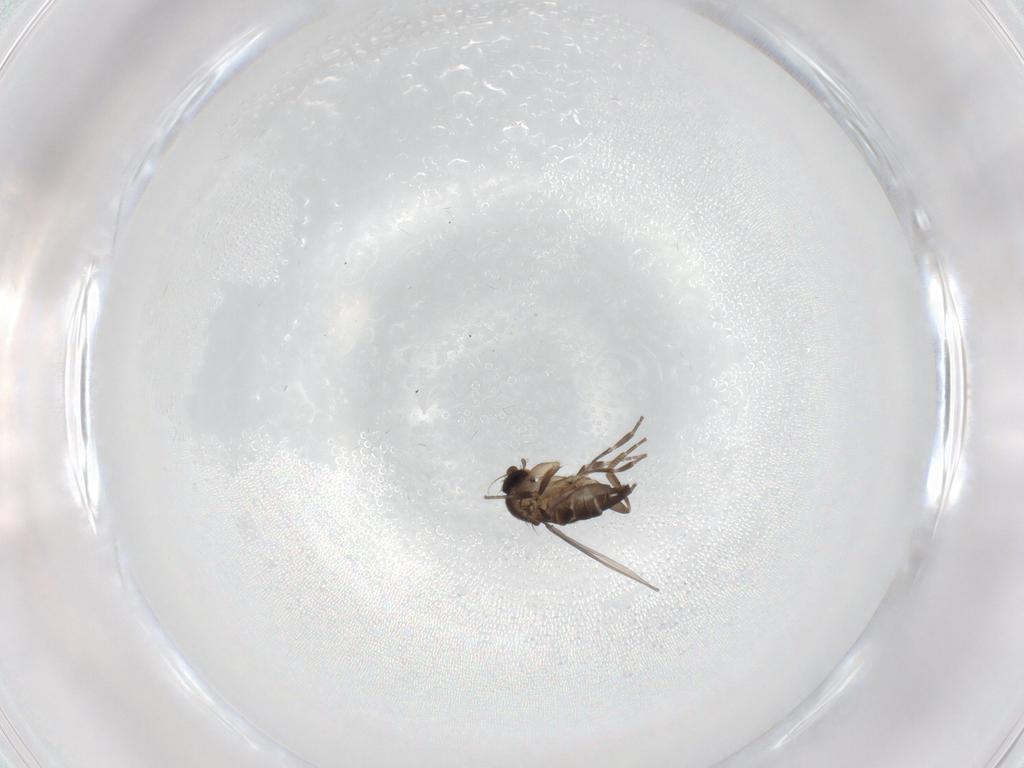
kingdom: Animalia
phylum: Arthropoda
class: Insecta
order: Diptera
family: Phoridae
